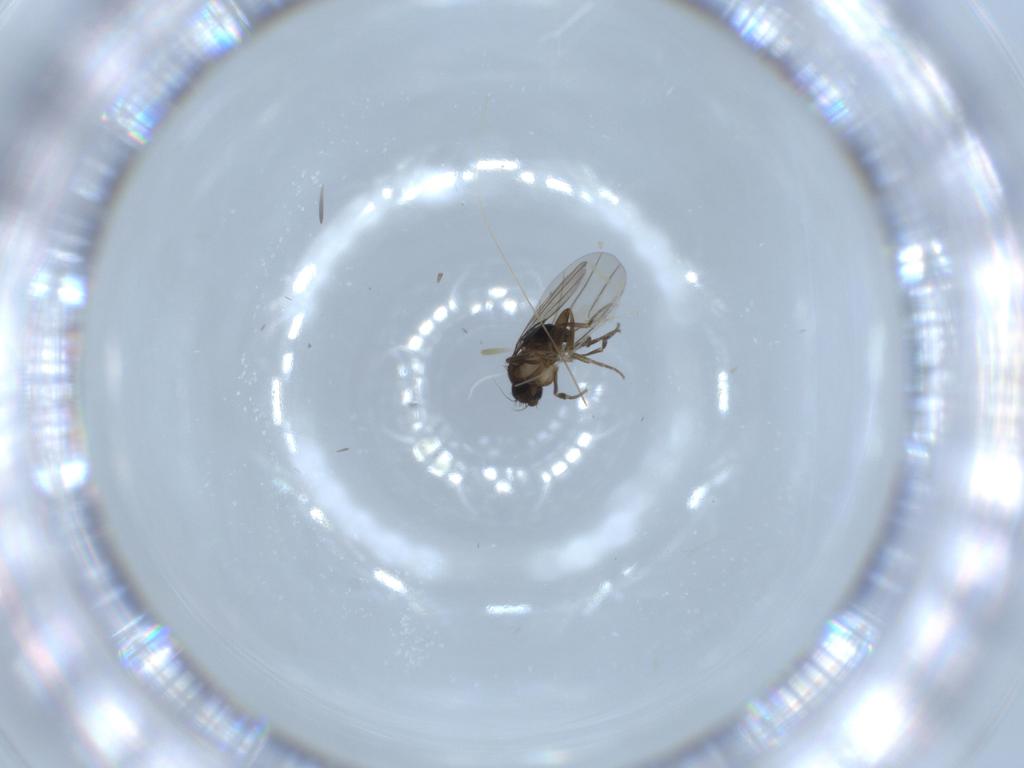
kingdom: Animalia
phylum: Arthropoda
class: Insecta
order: Diptera
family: Phoridae
